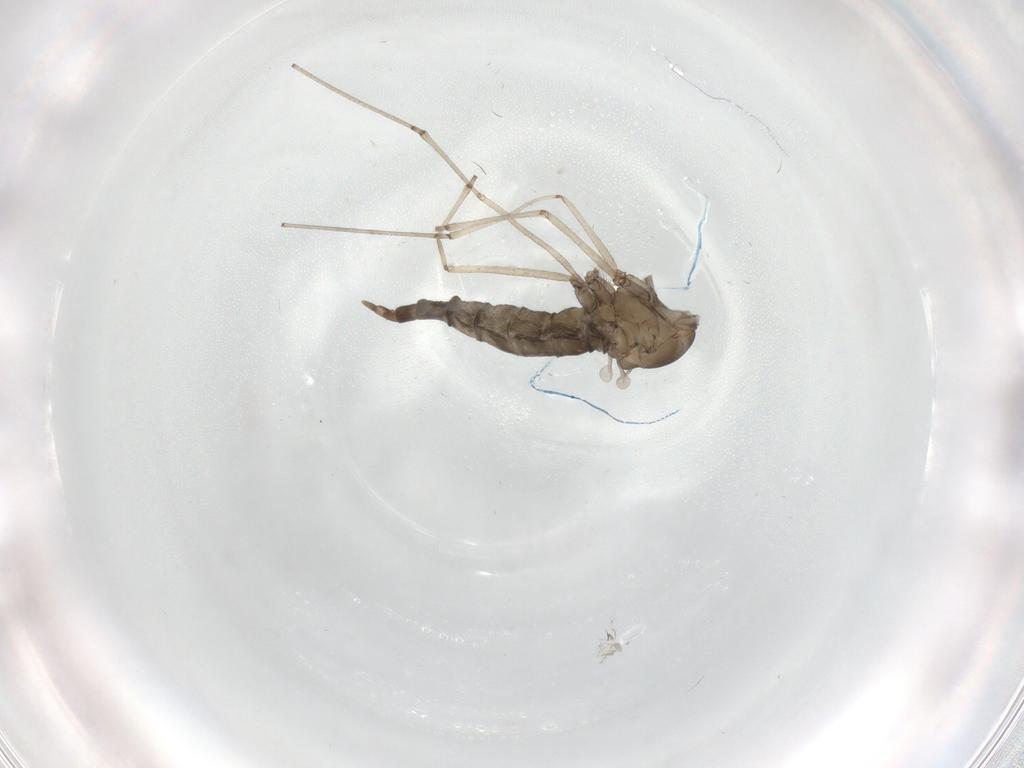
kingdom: Animalia
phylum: Arthropoda
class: Insecta
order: Diptera
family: Cecidomyiidae
